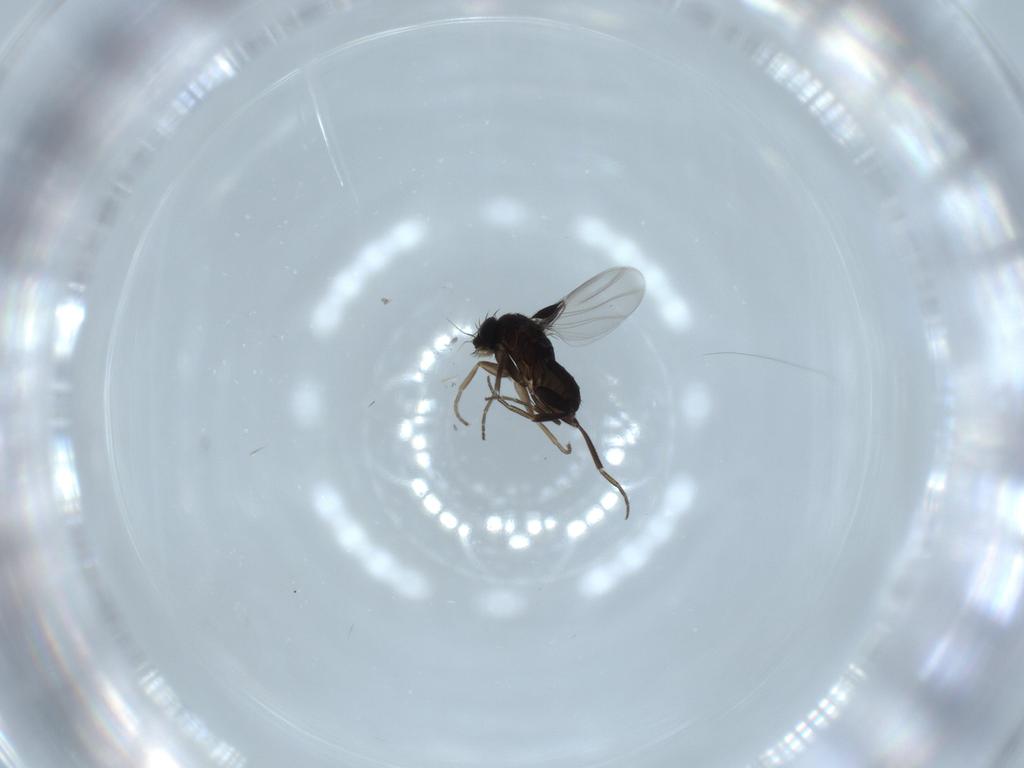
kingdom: Animalia
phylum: Arthropoda
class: Insecta
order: Diptera
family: Phoridae
